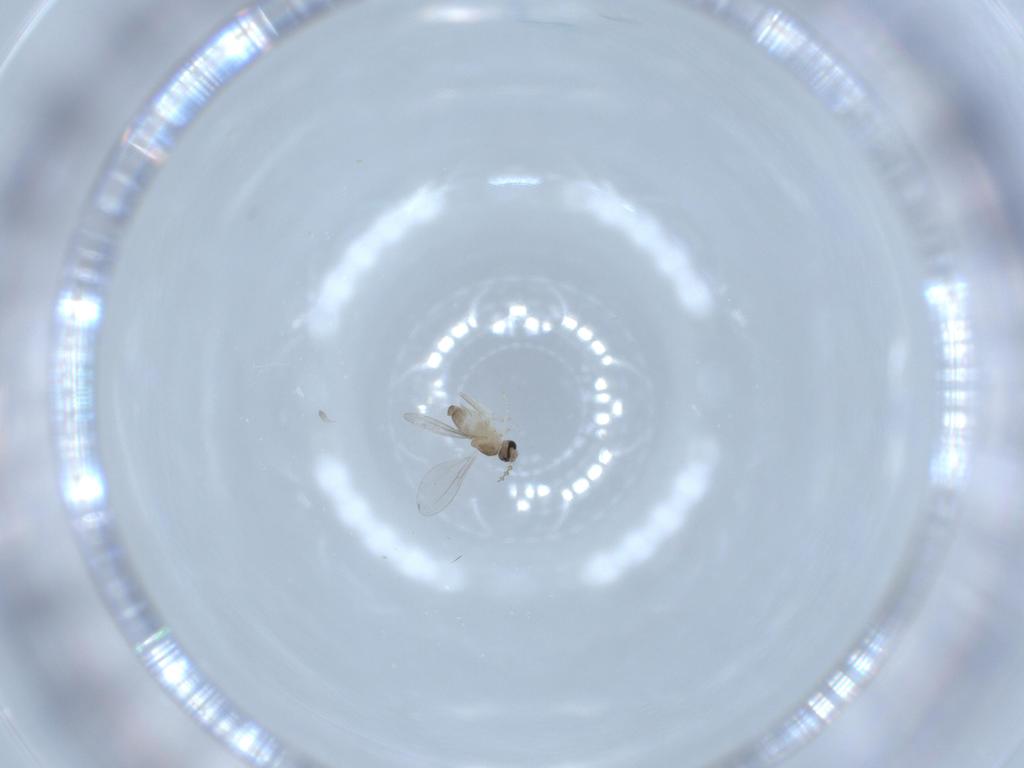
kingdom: Animalia
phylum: Arthropoda
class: Insecta
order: Diptera
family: Cecidomyiidae
